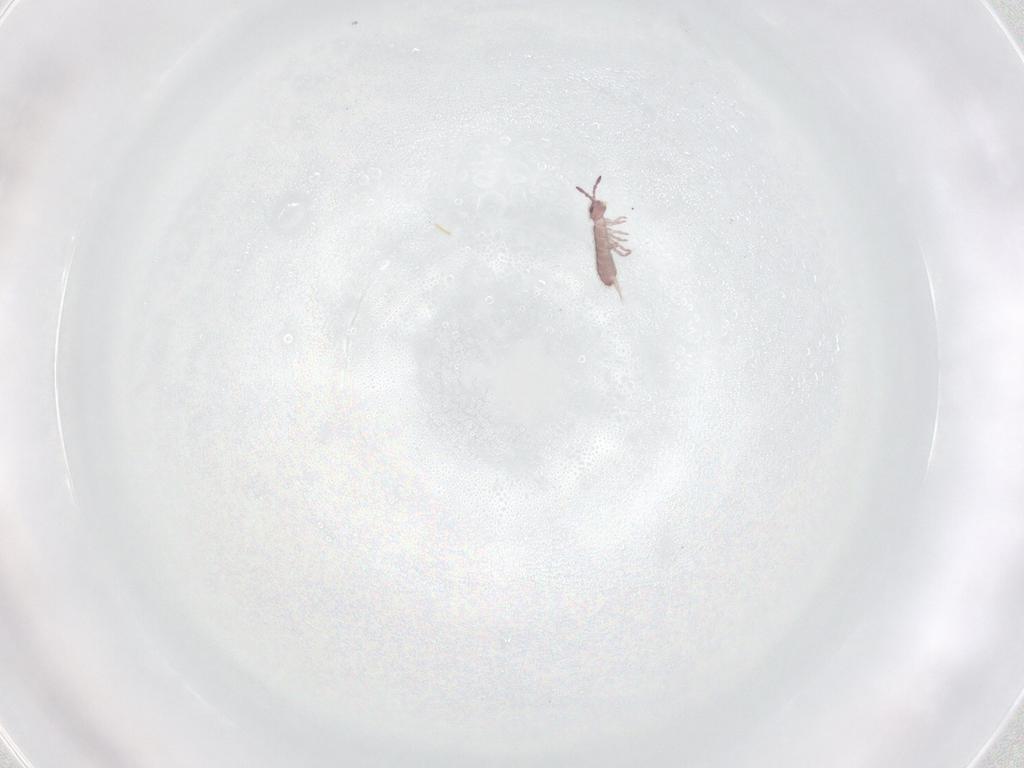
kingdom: Animalia
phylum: Arthropoda
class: Collembola
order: Entomobryomorpha
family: Isotomidae
